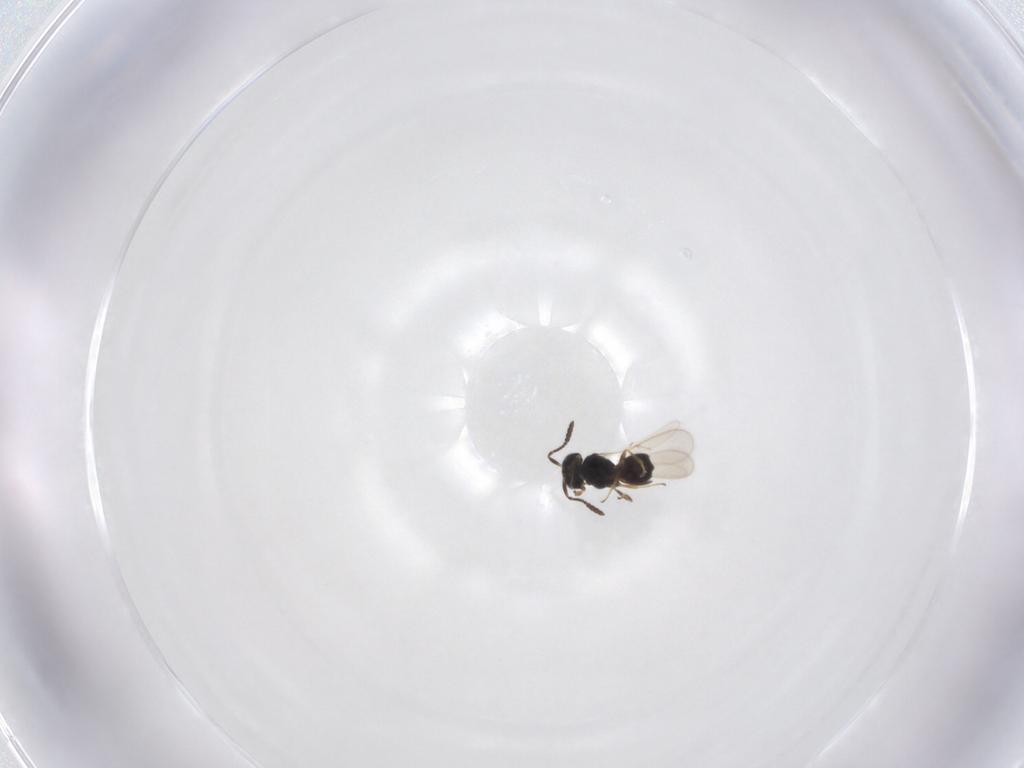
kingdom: Animalia
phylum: Arthropoda
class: Insecta
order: Hymenoptera
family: Scelionidae
